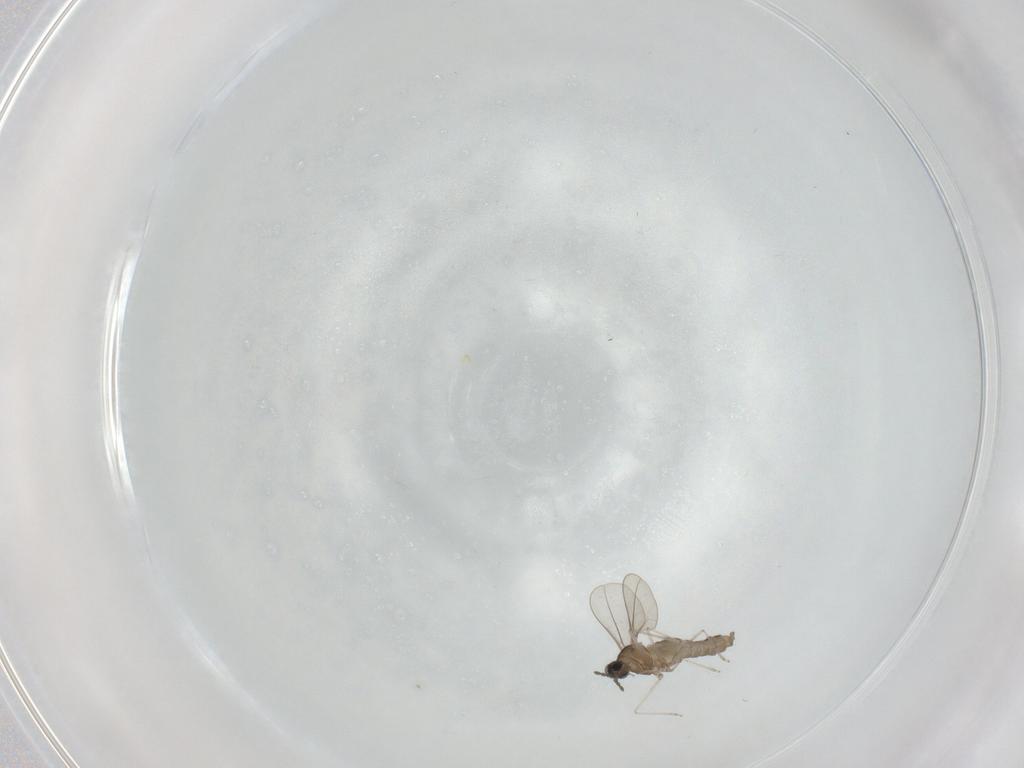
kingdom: Animalia
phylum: Arthropoda
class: Insecta
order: Diptera
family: Cecidomyiidae
